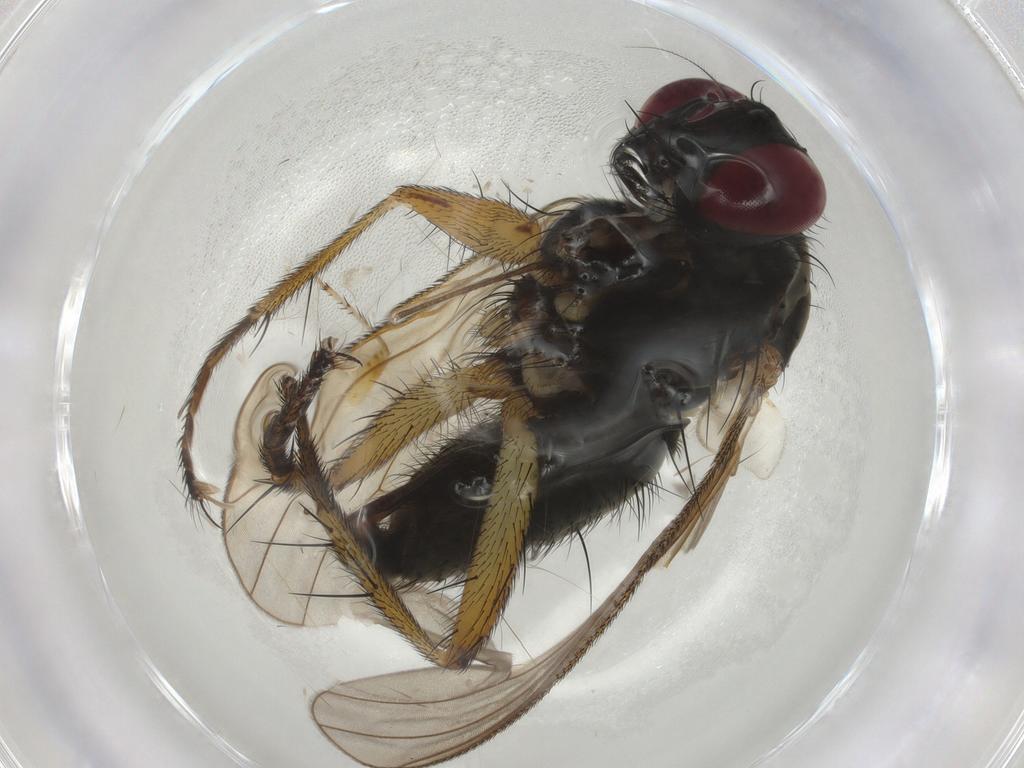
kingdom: Animalia
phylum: Arthropoda
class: Insecta
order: Diptera
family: Muscidae
